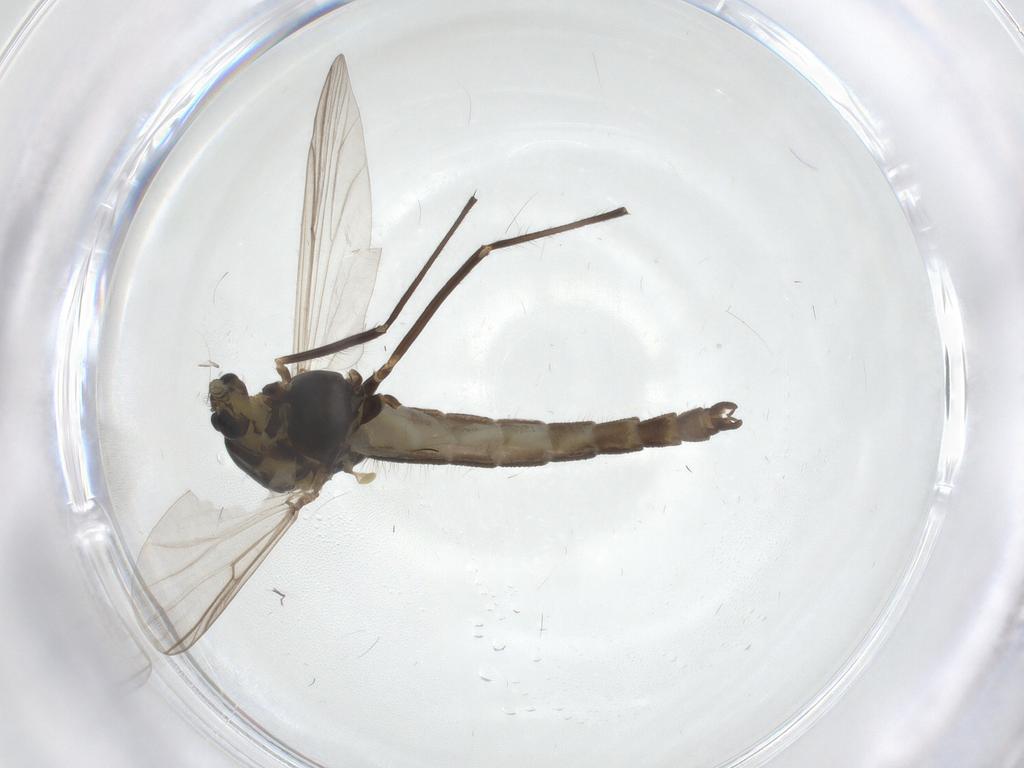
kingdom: Animalia
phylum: Arthropoda
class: Insecta
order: Diptera
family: Chironomidae
